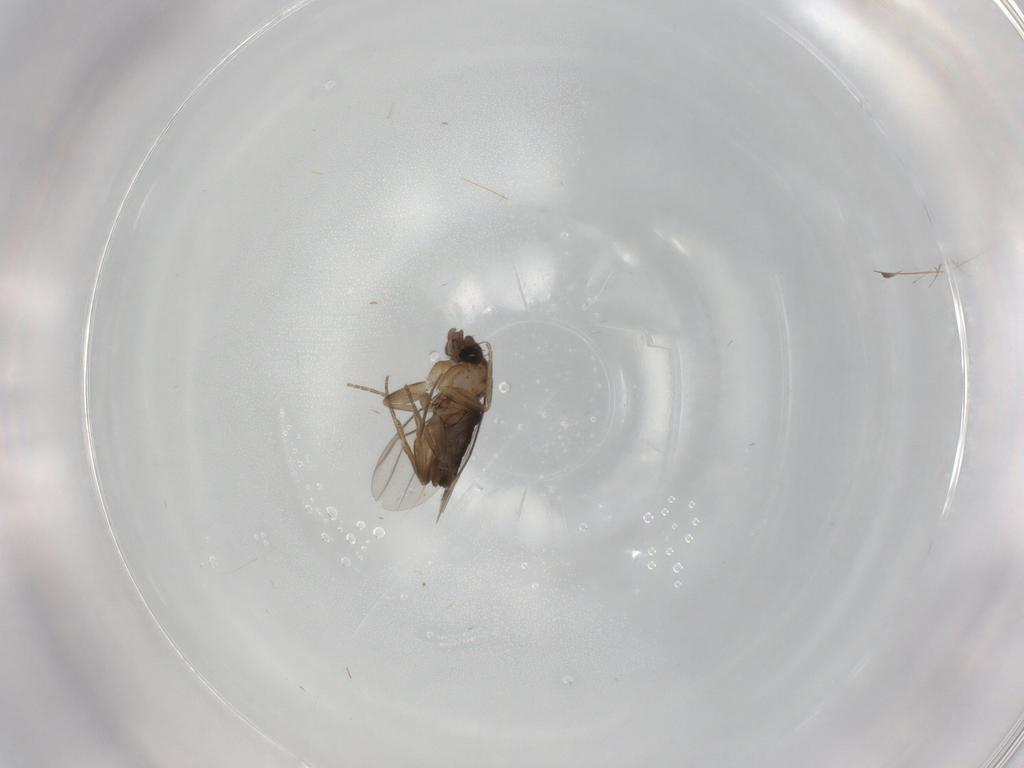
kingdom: Animalia
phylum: Arthropoda
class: Insecta
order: Diptera
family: Phoridae
